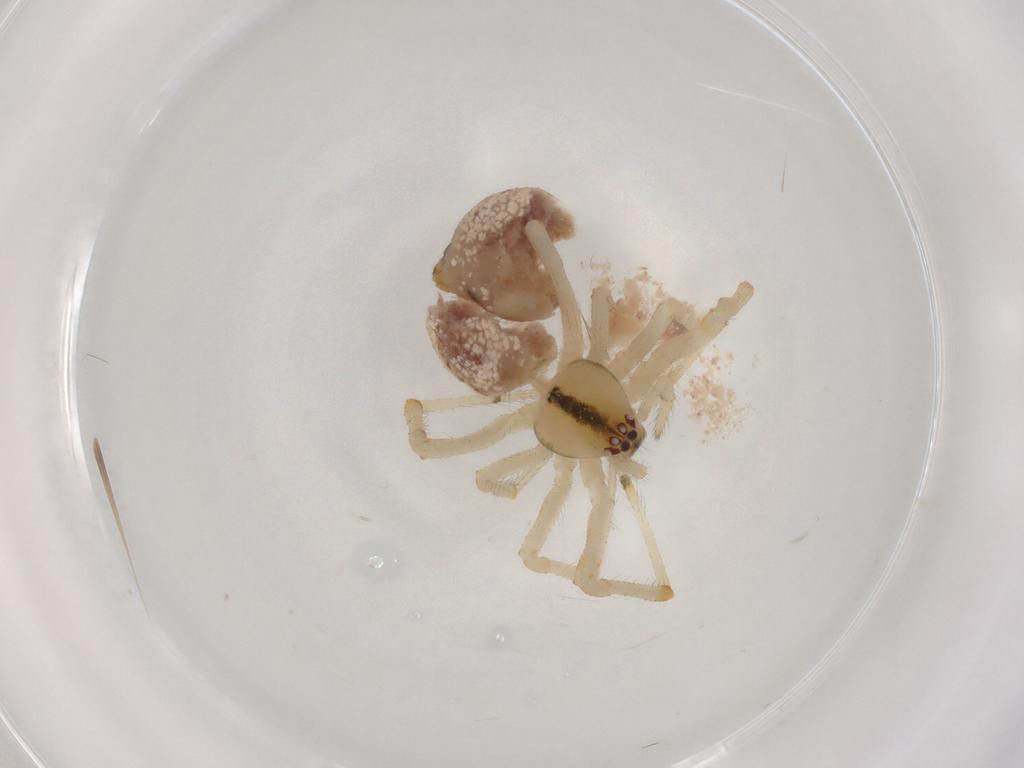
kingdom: Animalia
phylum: Arthropoda
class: Arachnida
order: Araneae
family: Theridiidae
